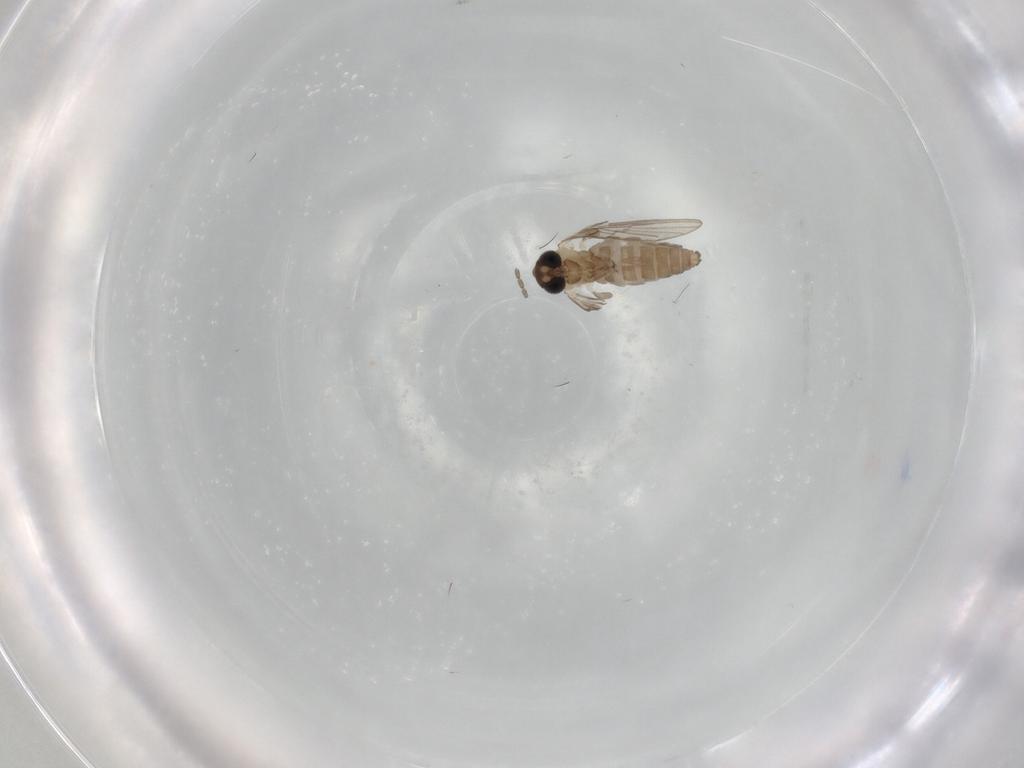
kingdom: Animalia
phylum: Arthropoda
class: Insecta
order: Diptera
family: Psychodidae
